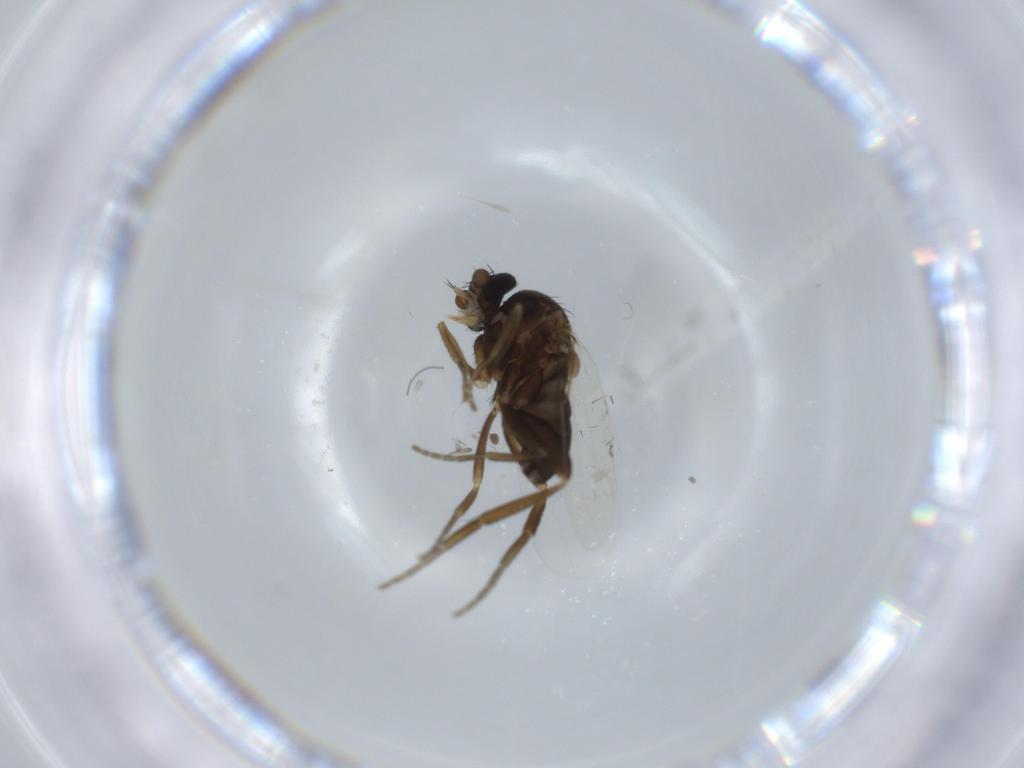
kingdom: Animalia
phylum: Arthropoda
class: Insecta
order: Diptera
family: Phoridae
